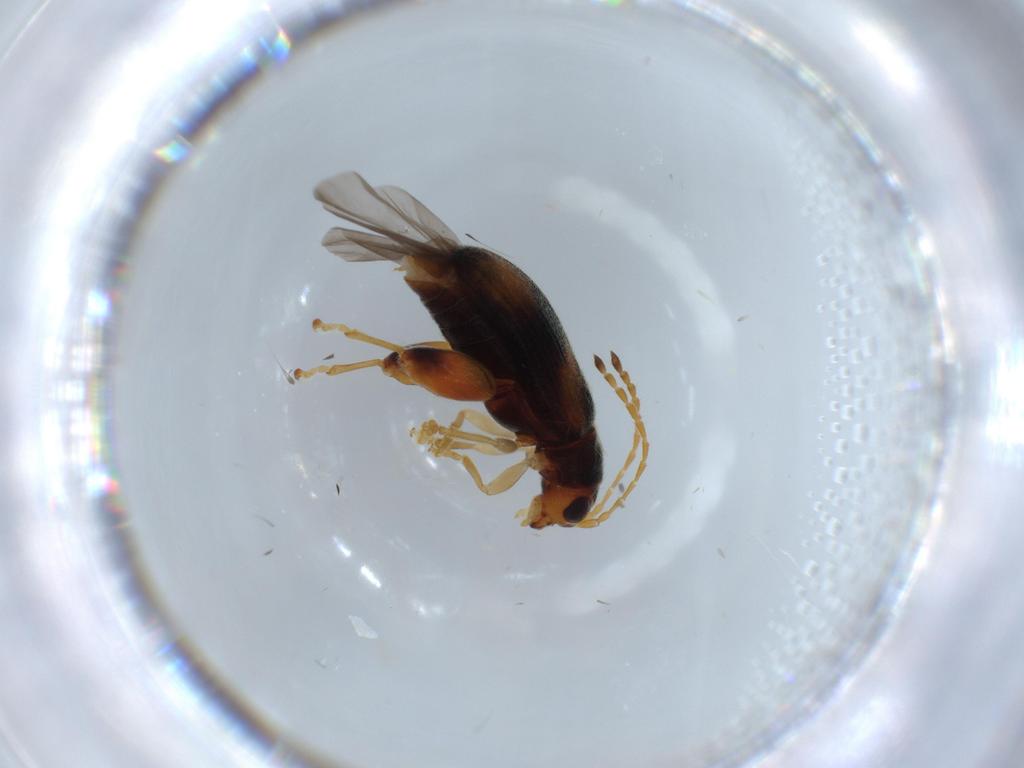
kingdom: Animalia
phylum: Arthropoda
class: Insecta
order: Coleoptera
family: Chrysomelidae
